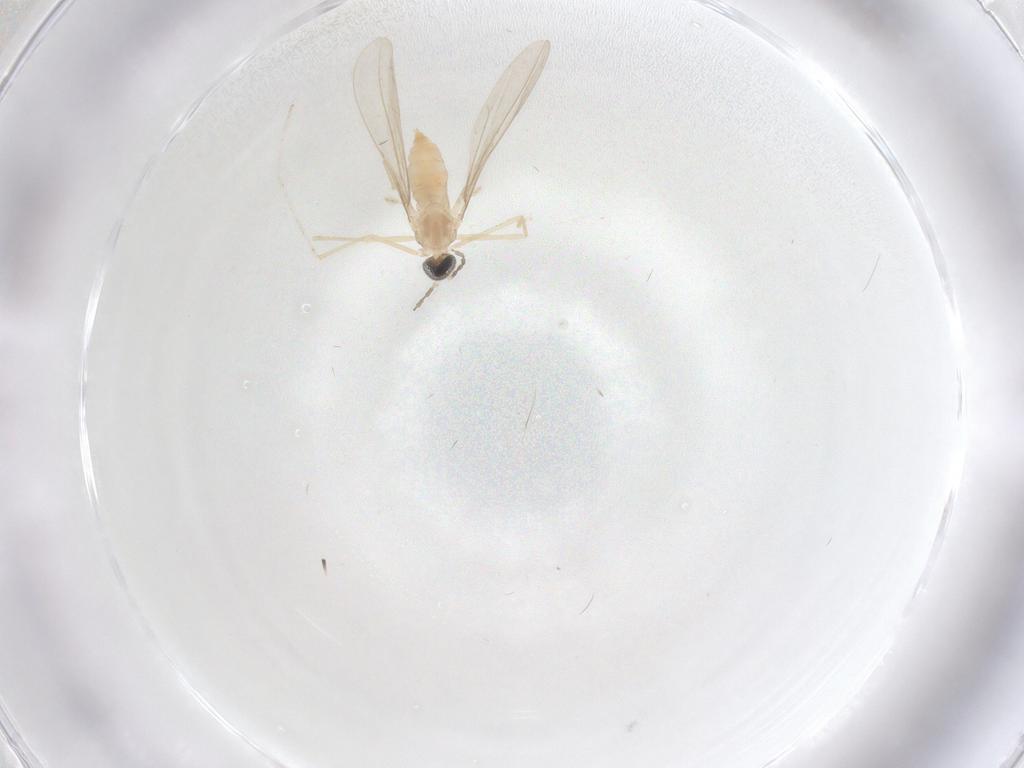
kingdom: Animalia
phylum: Arthropoda
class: Insecta
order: Diptera
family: Cecidomyiidae
